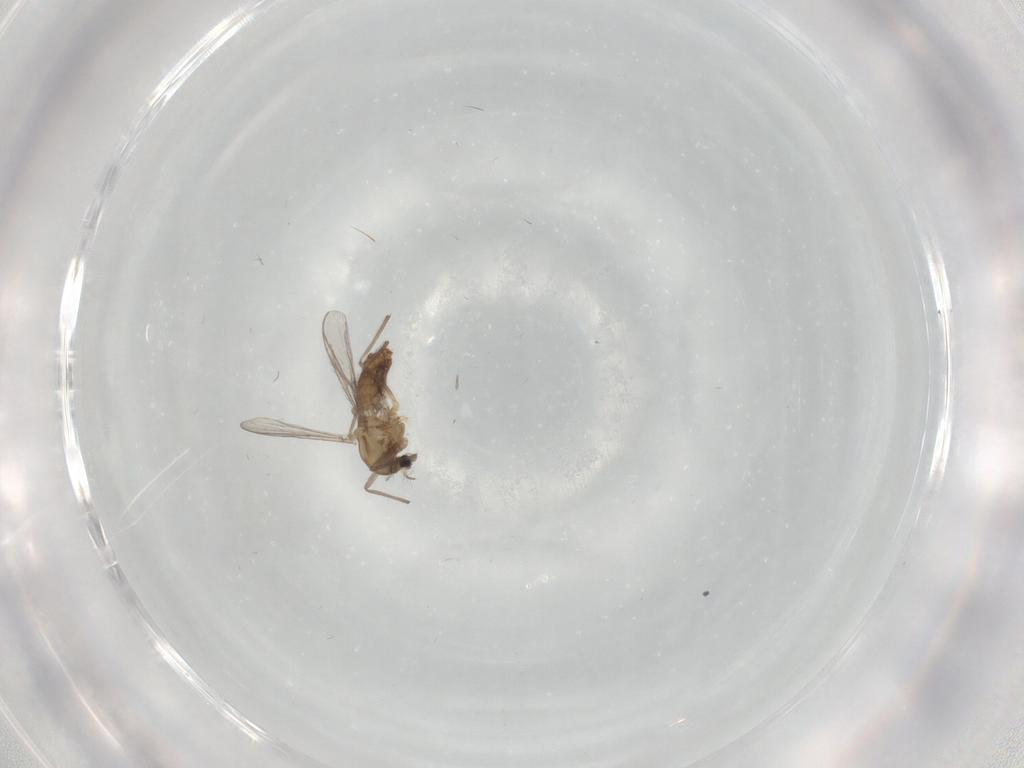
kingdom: Animalia
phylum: Arthropoda
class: Insecta
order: Diptera
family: Chironomidae
